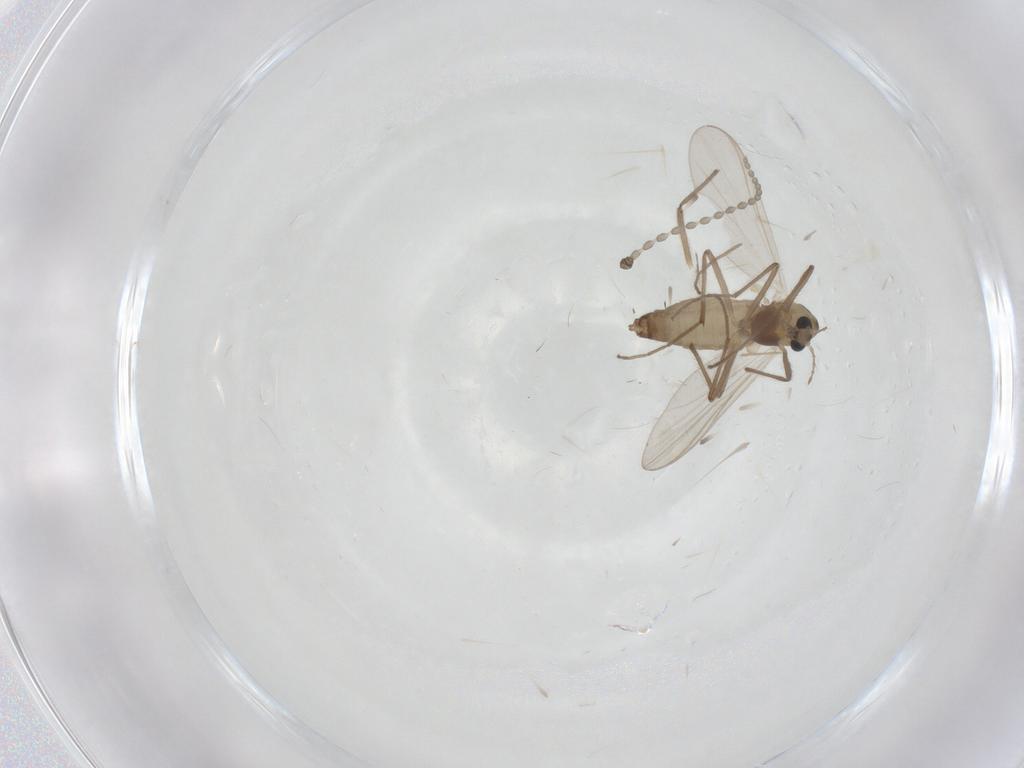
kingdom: Animalia
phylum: Arthropoda
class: Insecta
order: Diptera
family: Chironomidae
